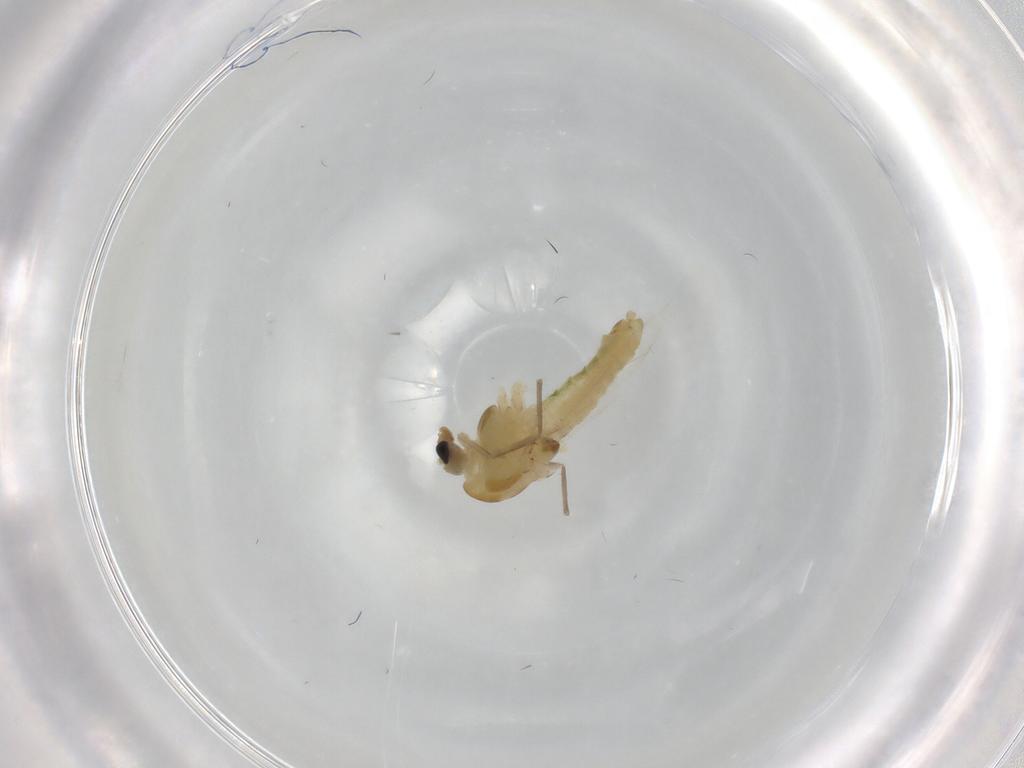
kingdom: Animalia
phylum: Arthropoda
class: Insecta
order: Diptera
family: Chironomidae
